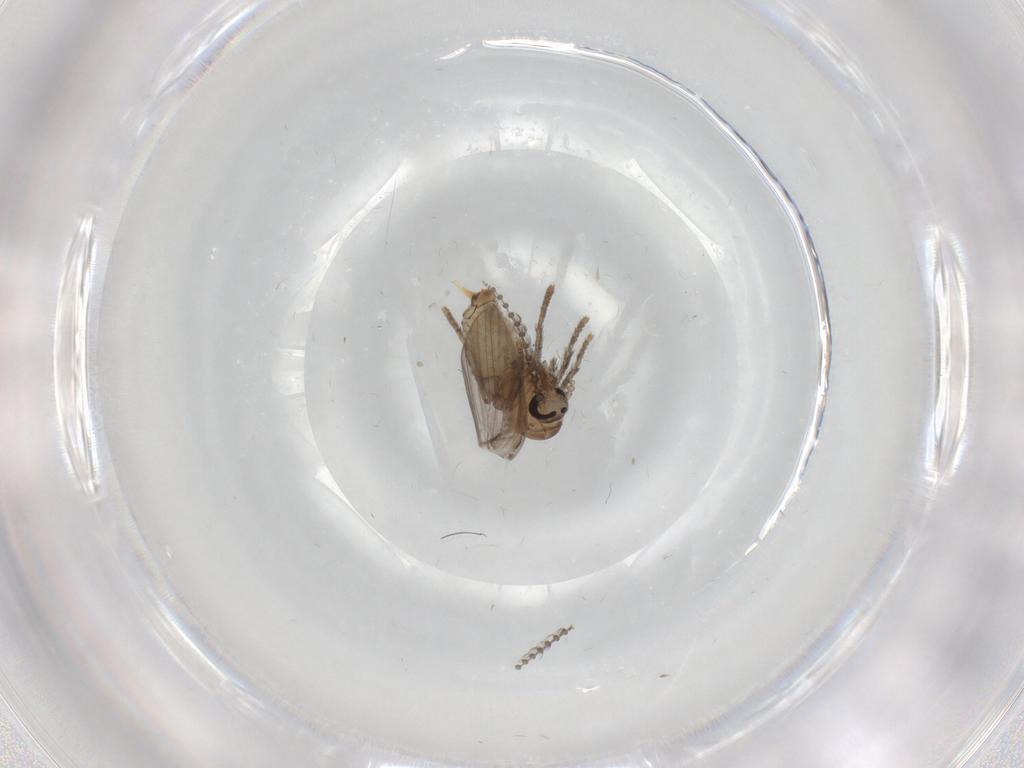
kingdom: Animalia
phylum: Arthropoda
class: Insecta
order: Diptera
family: Psychodidae
